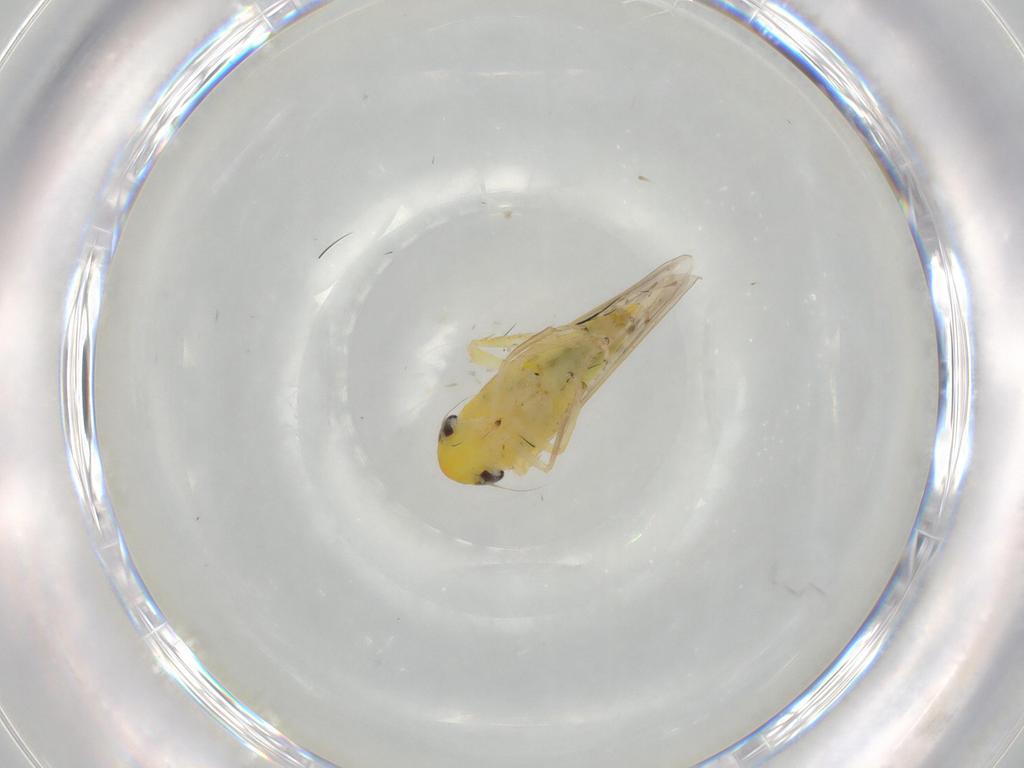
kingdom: Animalia
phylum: Arthropoda
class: Insecta
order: Hemiptera
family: Cicadellidae
